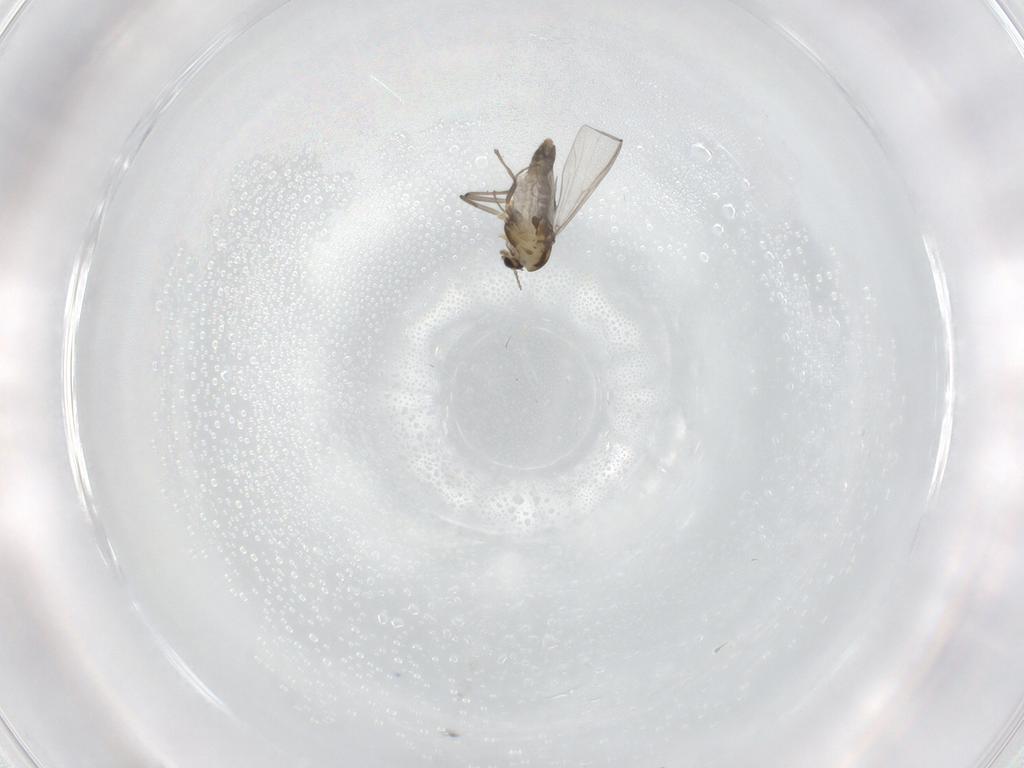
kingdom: Animalia
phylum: Arthropoda
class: Insecta
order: Diptera
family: Chironomidae
